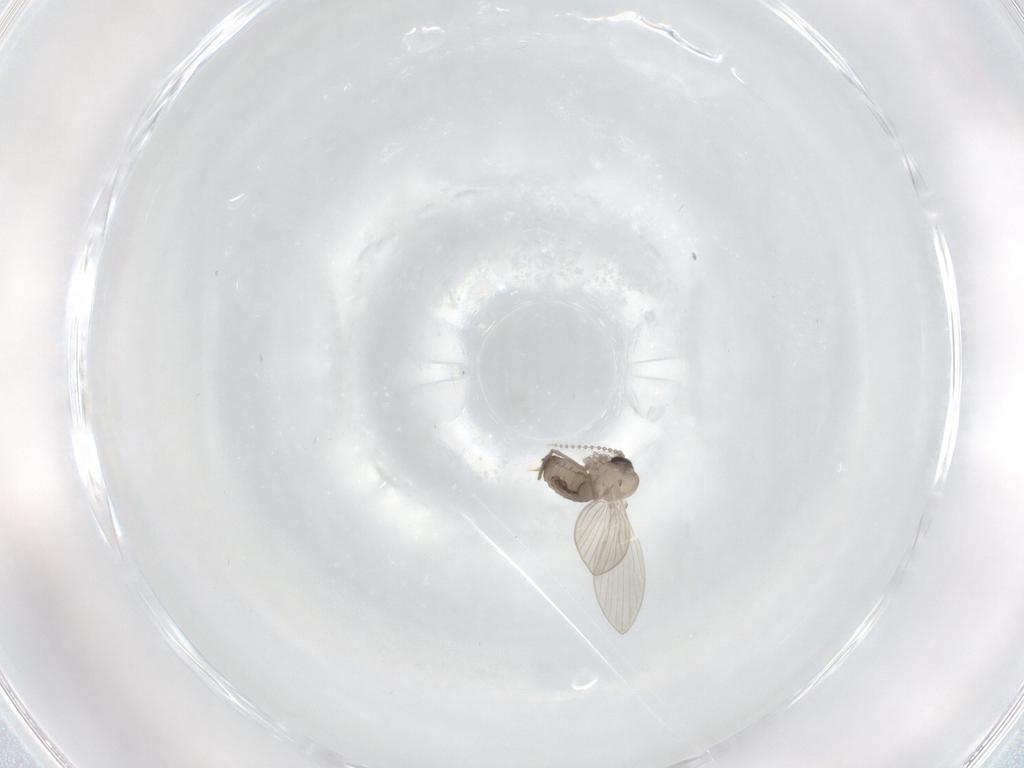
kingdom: Animalia
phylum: Arthropoda
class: Insecta
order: Diptera
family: Psychodidae
